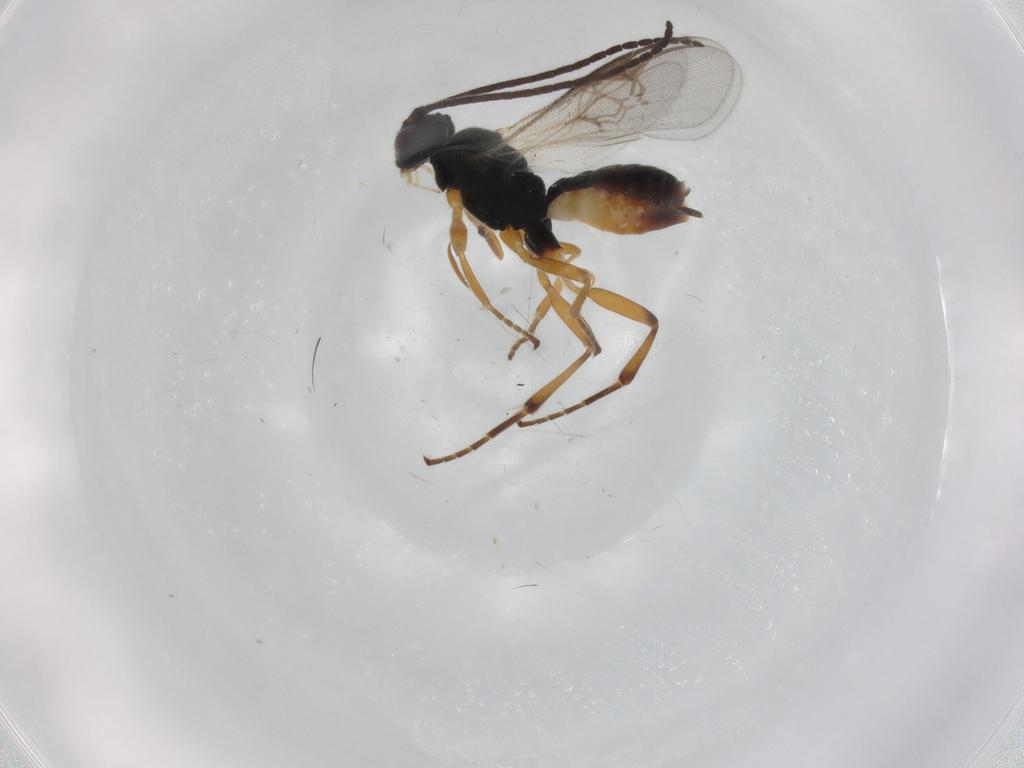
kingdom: Animalia
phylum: Arthropoda
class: Insecta
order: Hymenoptera
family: Braconidae
